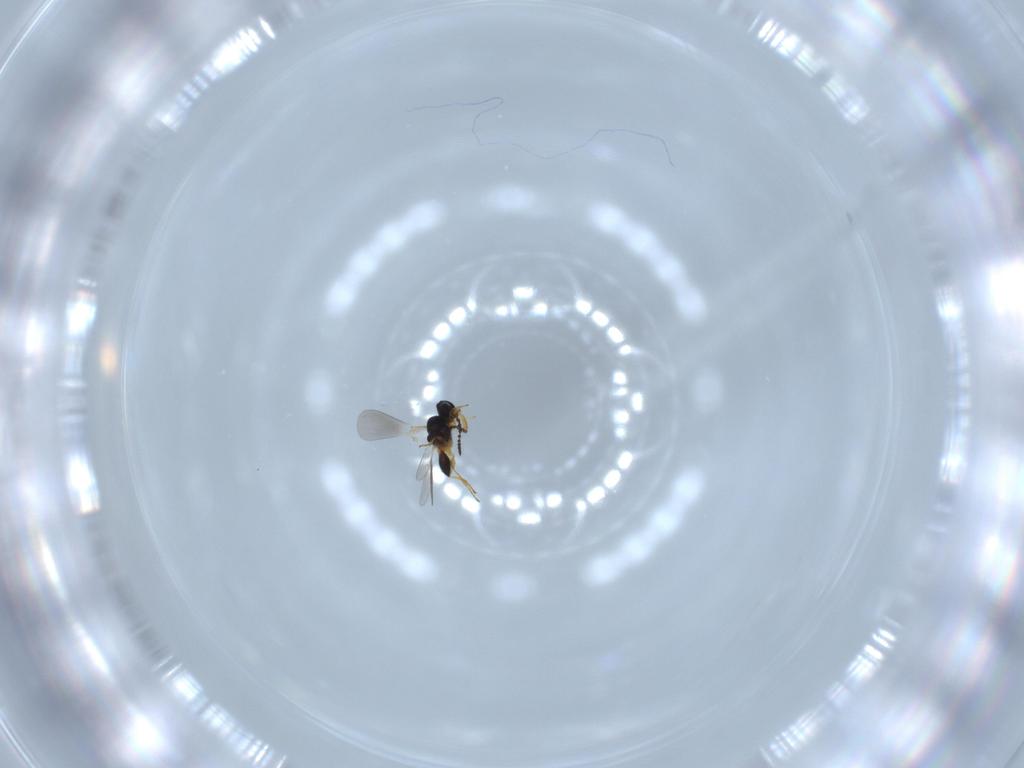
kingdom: Animalia
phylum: Arthropoda
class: Insecta
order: Hymenoptera
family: Platygastridae
